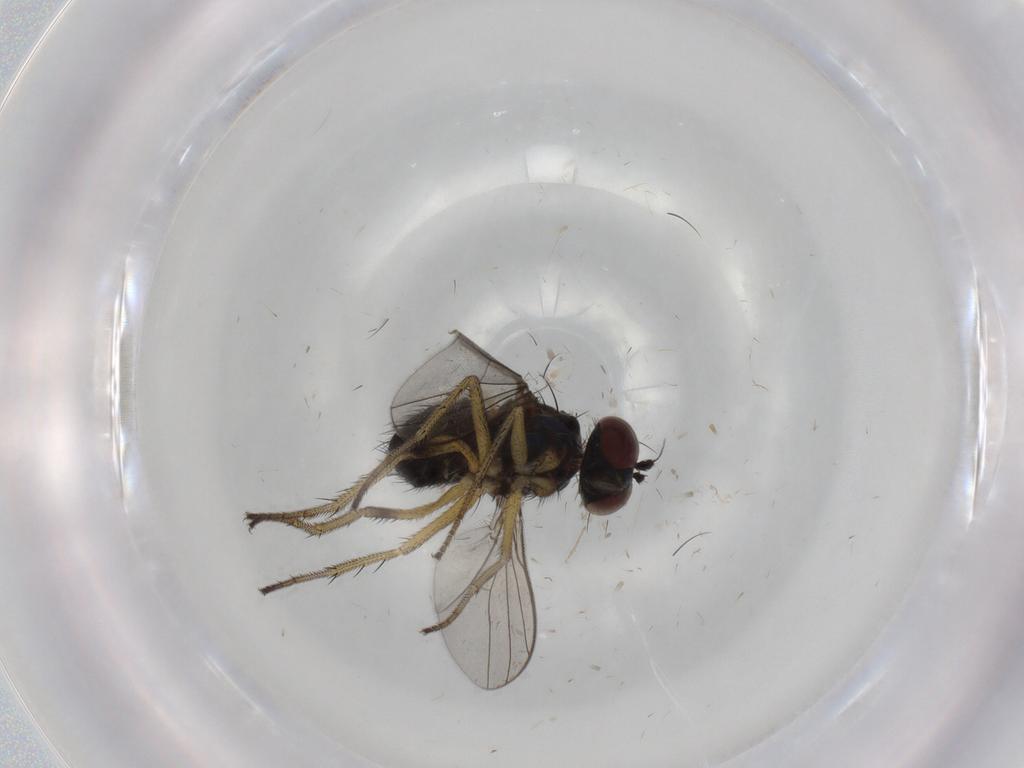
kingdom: Animalia
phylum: Arthropoda
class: Insecta
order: Diptera
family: Dolichopodidae
